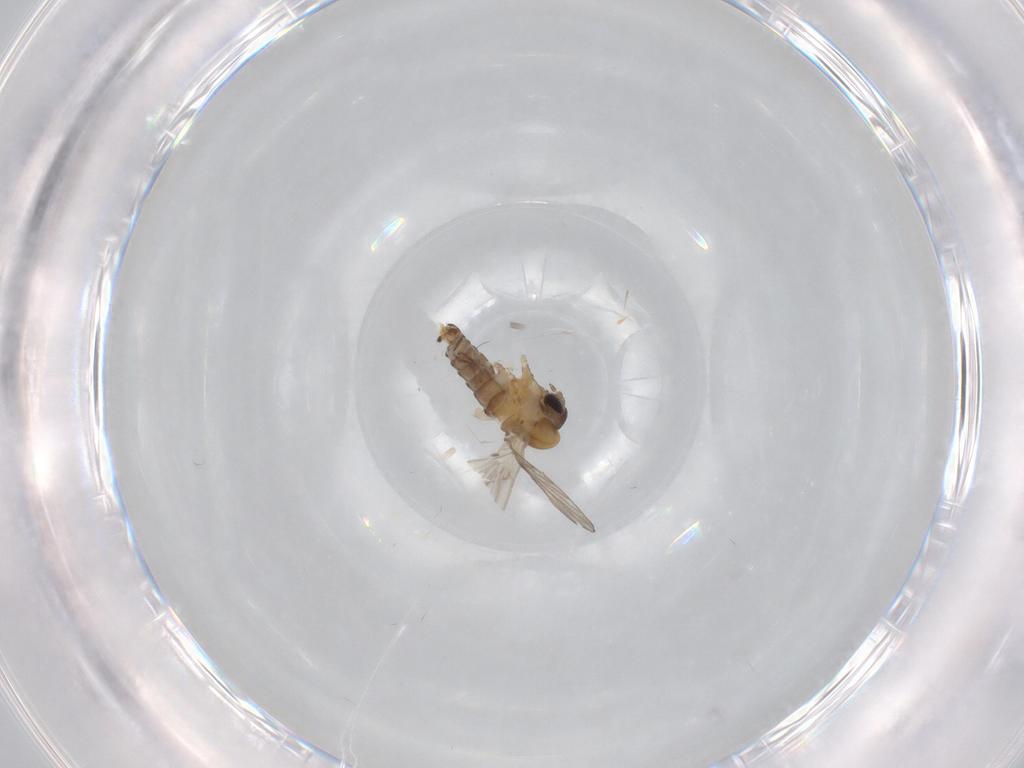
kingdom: Animalia
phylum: Arthropoda
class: Insecta
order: Diptera
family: Psychodidae
